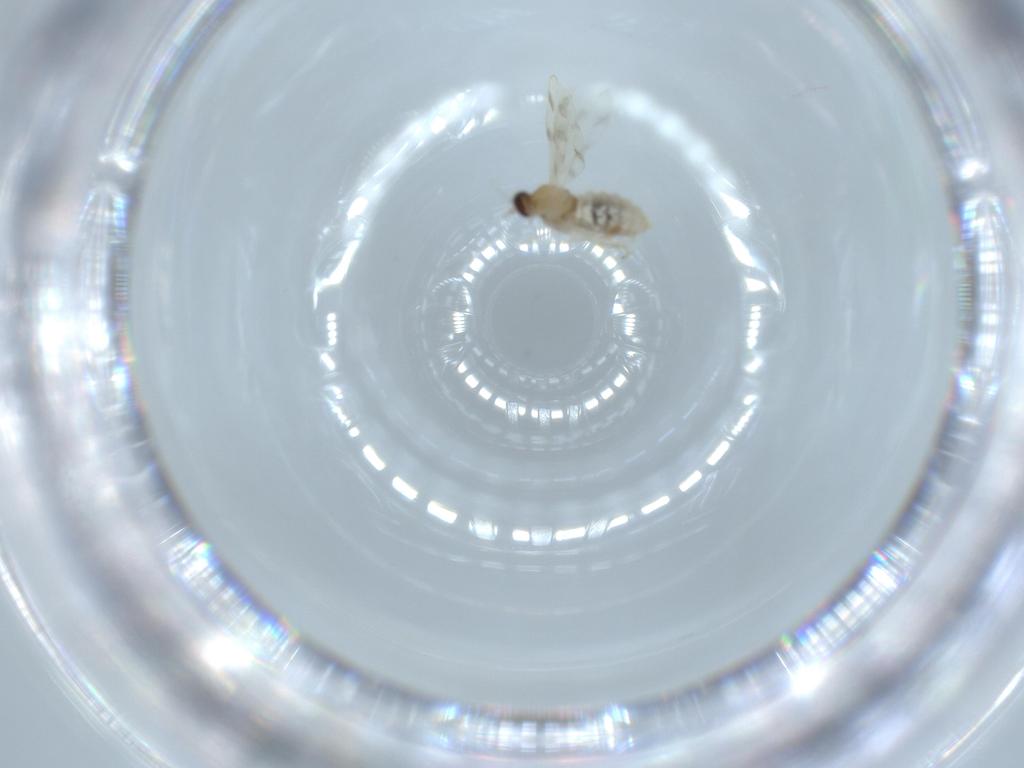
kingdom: Animalia
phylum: Arthropoda
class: Insecta
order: Diptera
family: Cecidomyiidae
